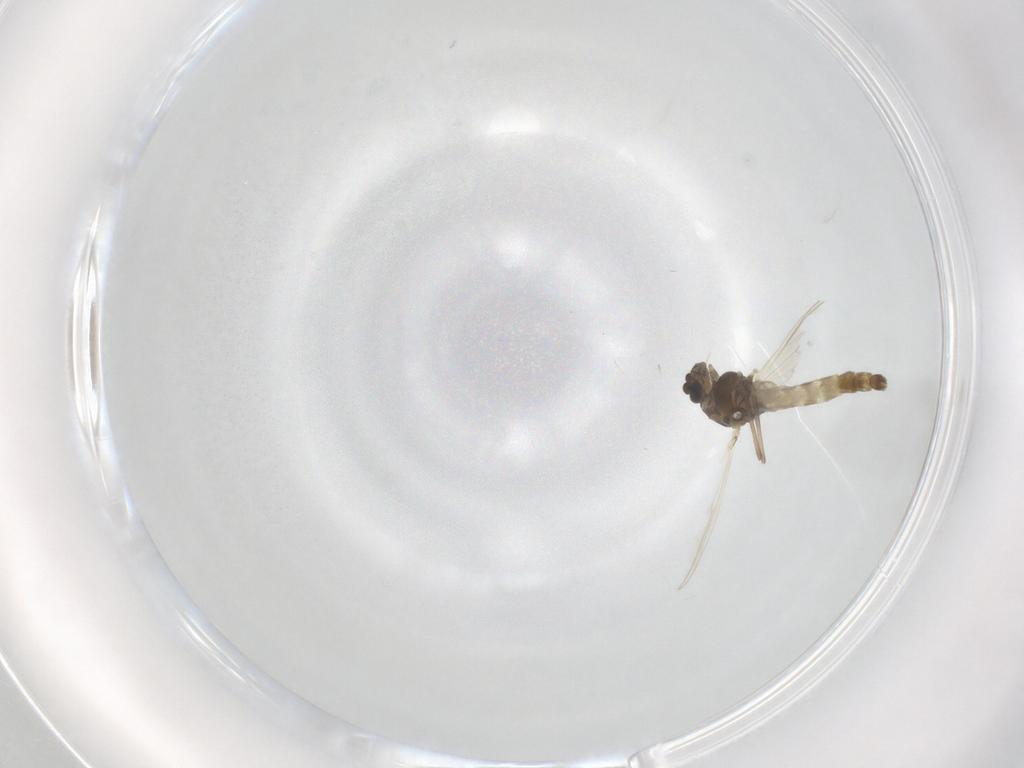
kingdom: Animalia
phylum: Arthropoda
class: Insecta
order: Diptera
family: Chironomidae
